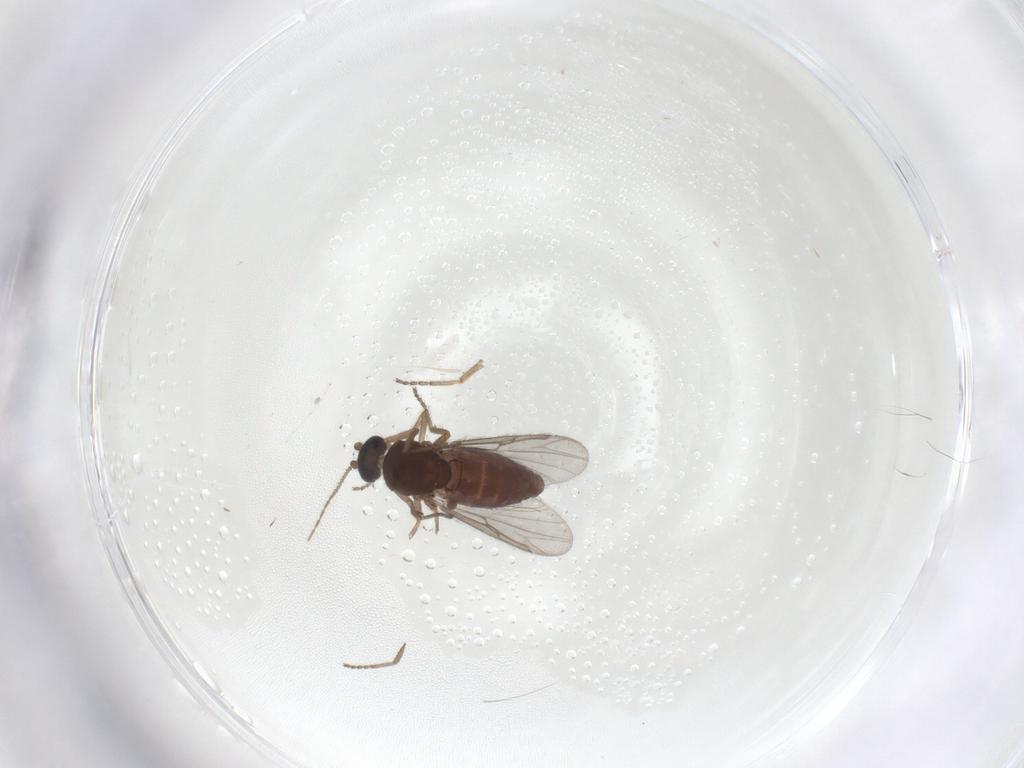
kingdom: Animalia
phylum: Arthropoda
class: Insecta
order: Diptera
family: Ceratopogonidae
